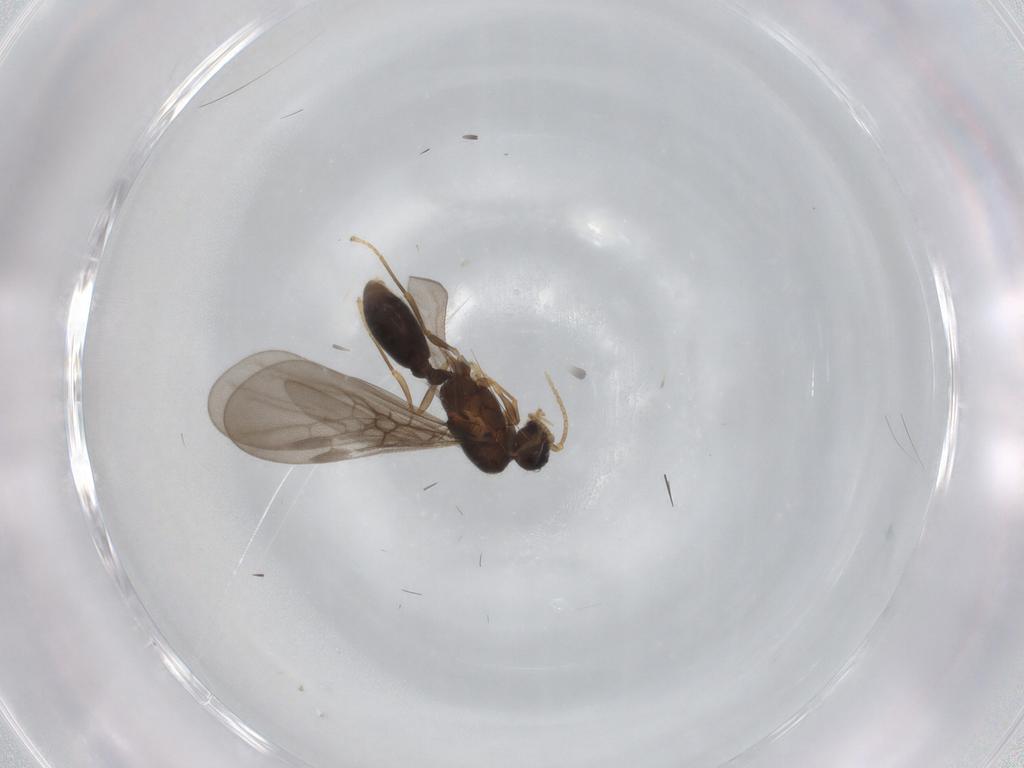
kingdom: Animalia
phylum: Arthropoda
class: Insecta
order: Hymenoptera
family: Formicidae
